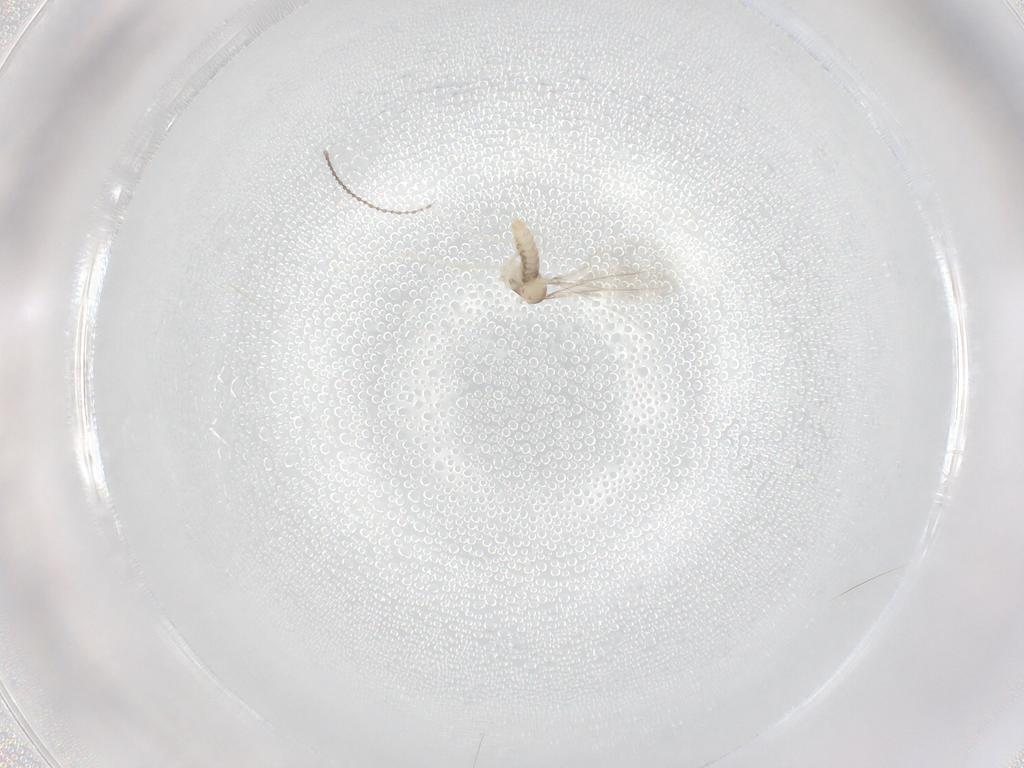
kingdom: Animalia
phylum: Arthropoda
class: Insecta
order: Diptera
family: Cecidomyiidae
